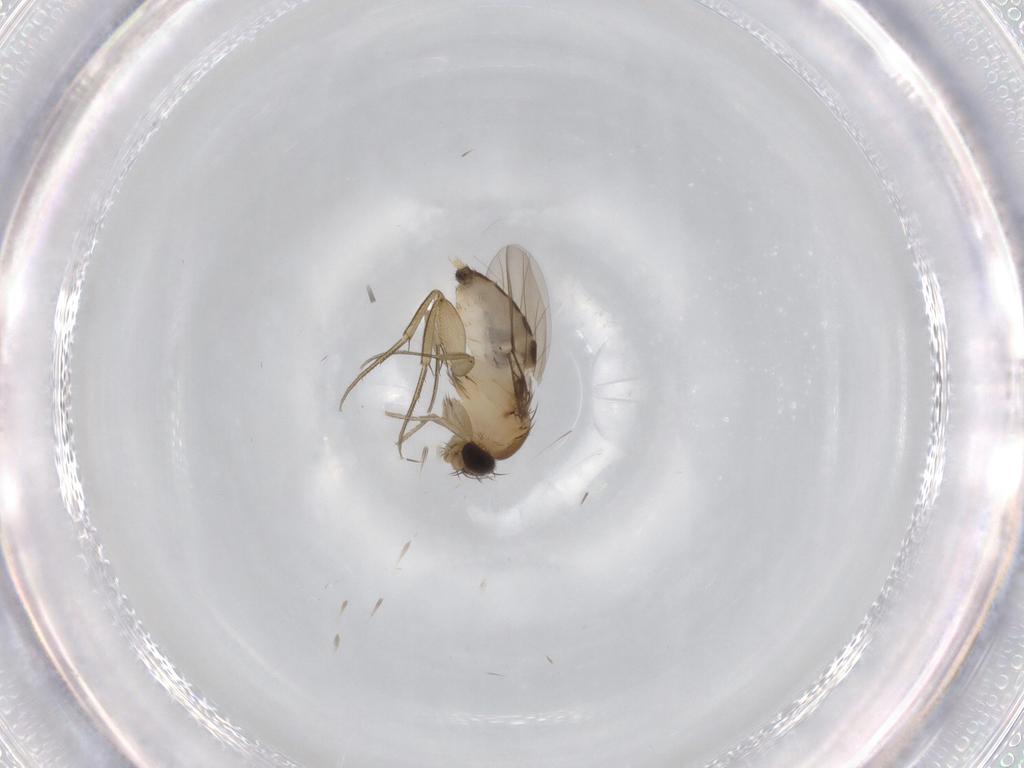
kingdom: Animalia
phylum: Arthropoda
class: Insecta
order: Diptera
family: Phoridae
